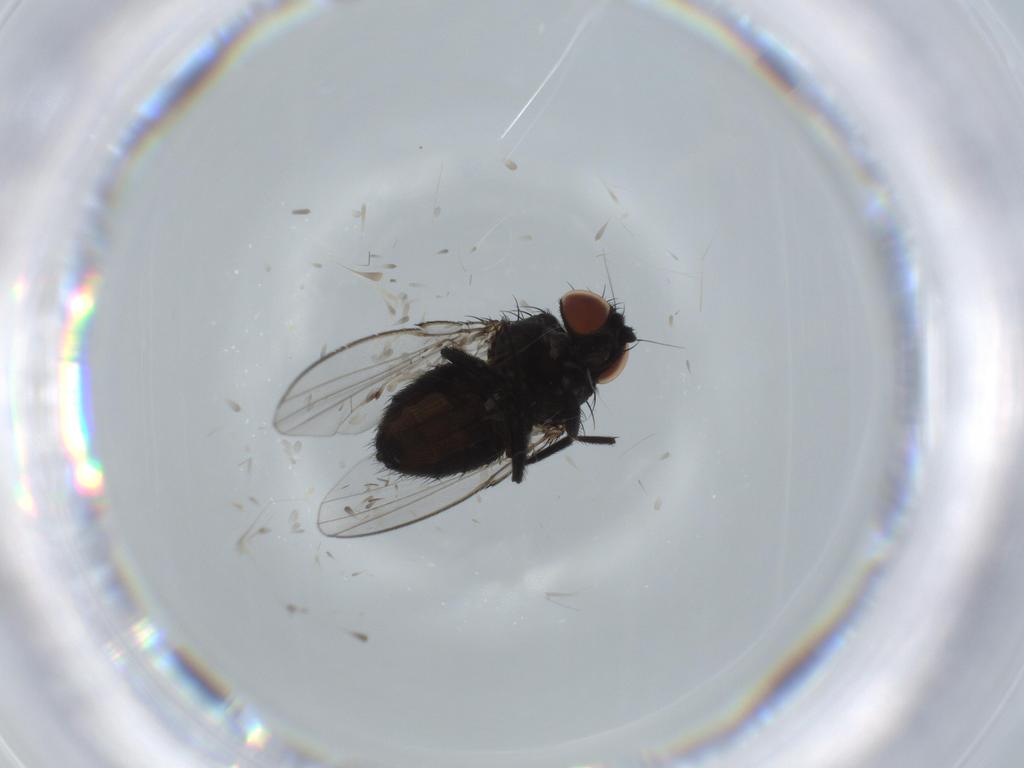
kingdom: Animalia
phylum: Arthropoda
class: Insecta
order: Diptera
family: Milichiidae
